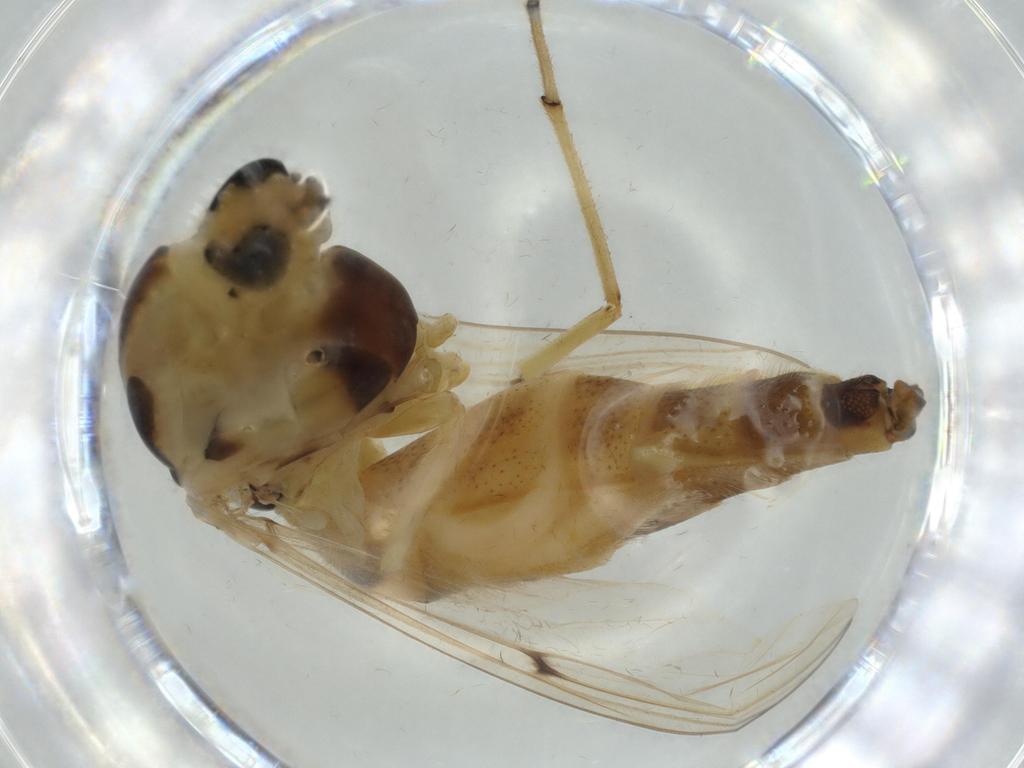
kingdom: Animalia
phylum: Arthropoda
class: Insecta
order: Diptera
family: Chironomidae
